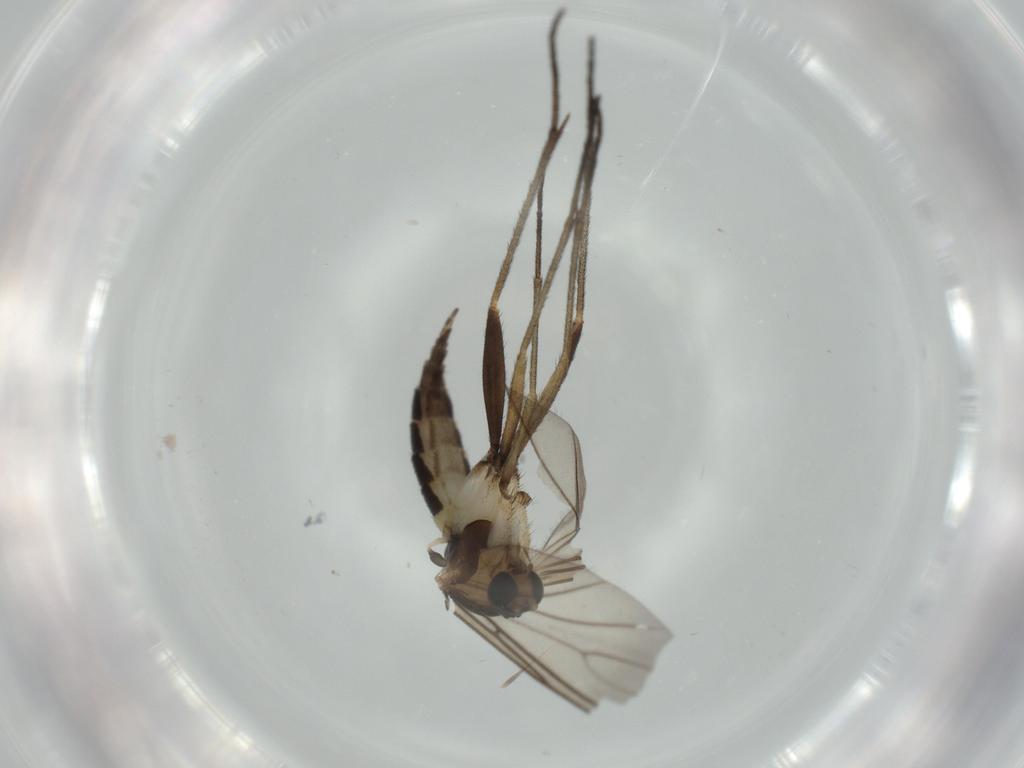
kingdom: Animalia
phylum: Arthropoda
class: Insecta
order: Diptera
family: Sciaridae
